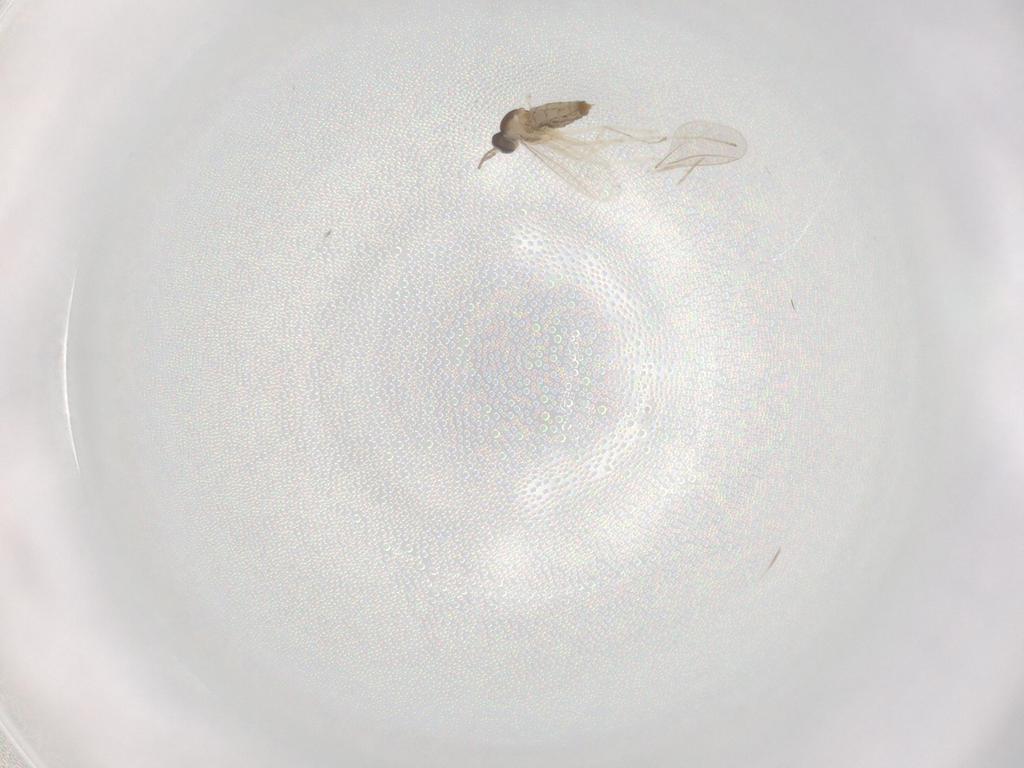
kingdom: Animalia
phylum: Arthropoda
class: Insecta
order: Diptera
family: Cecidomyiidae
